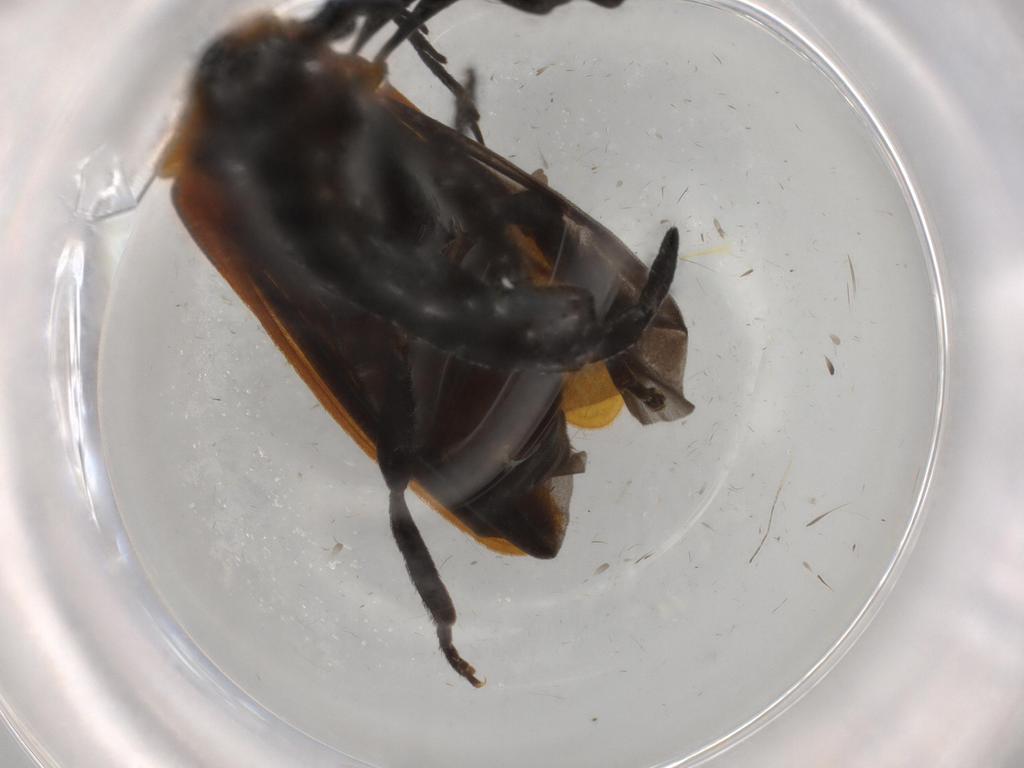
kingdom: Animalia
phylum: Arthropoda
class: Insecta
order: Coleoptera
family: Lycidae
